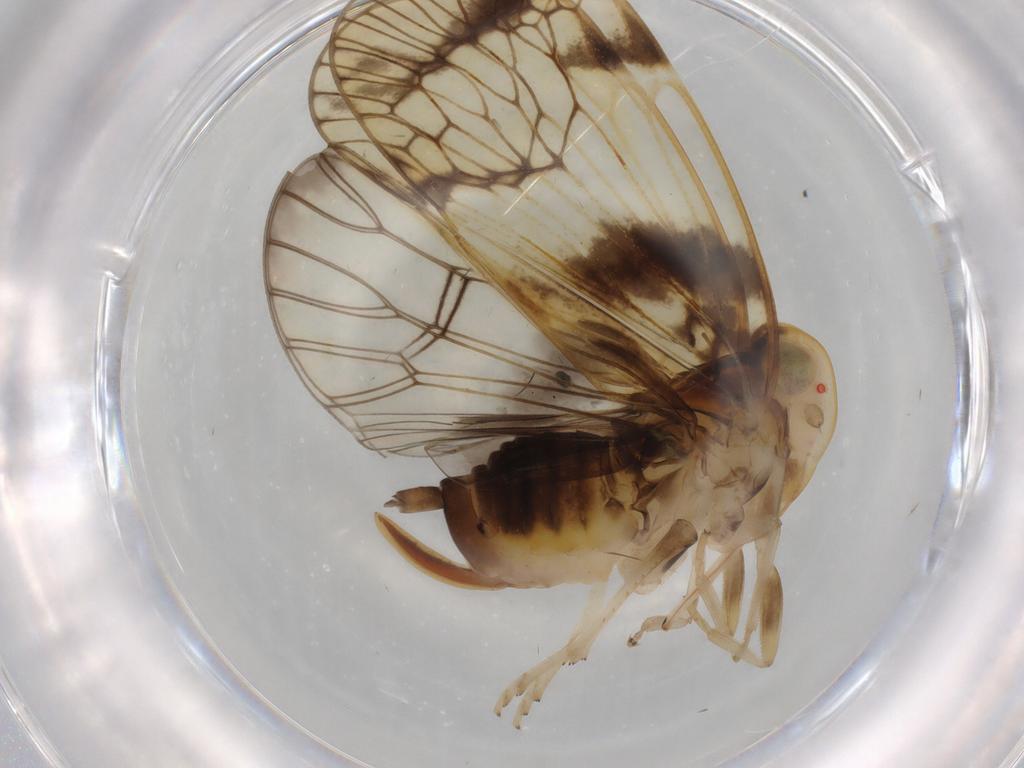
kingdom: Animalia
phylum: Arthropoda
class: Insecta
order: Hemiptera
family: Cixiidae
